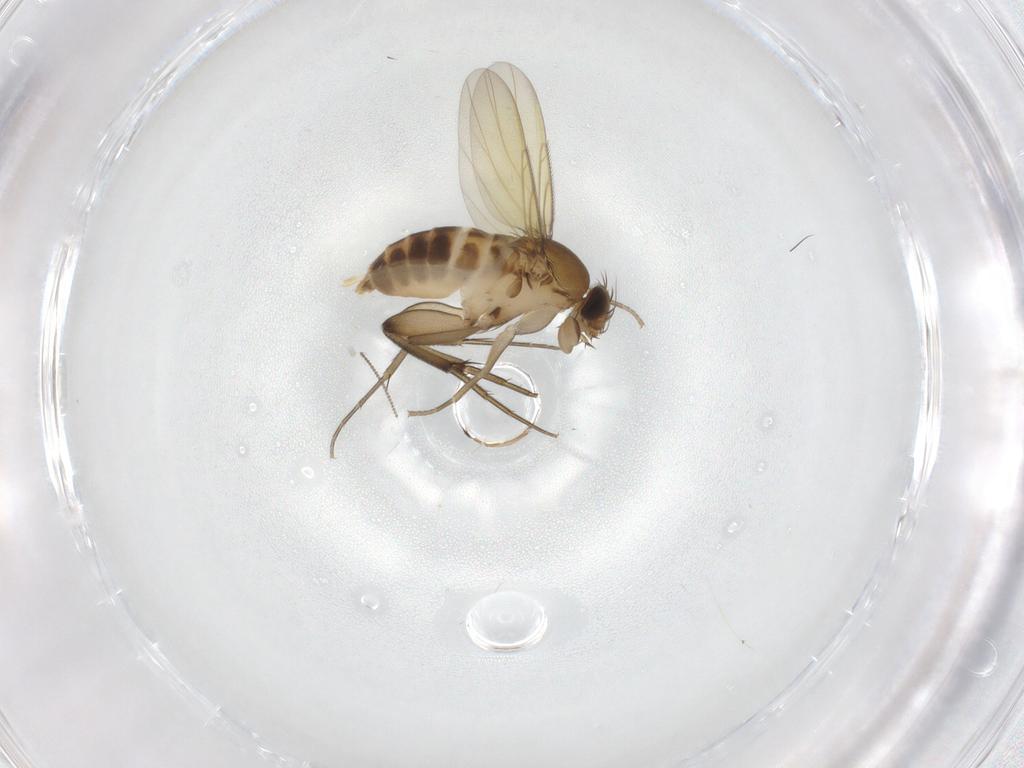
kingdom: Animalia
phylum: Arthropoda
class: Insecta
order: Diptera
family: Phoridae
